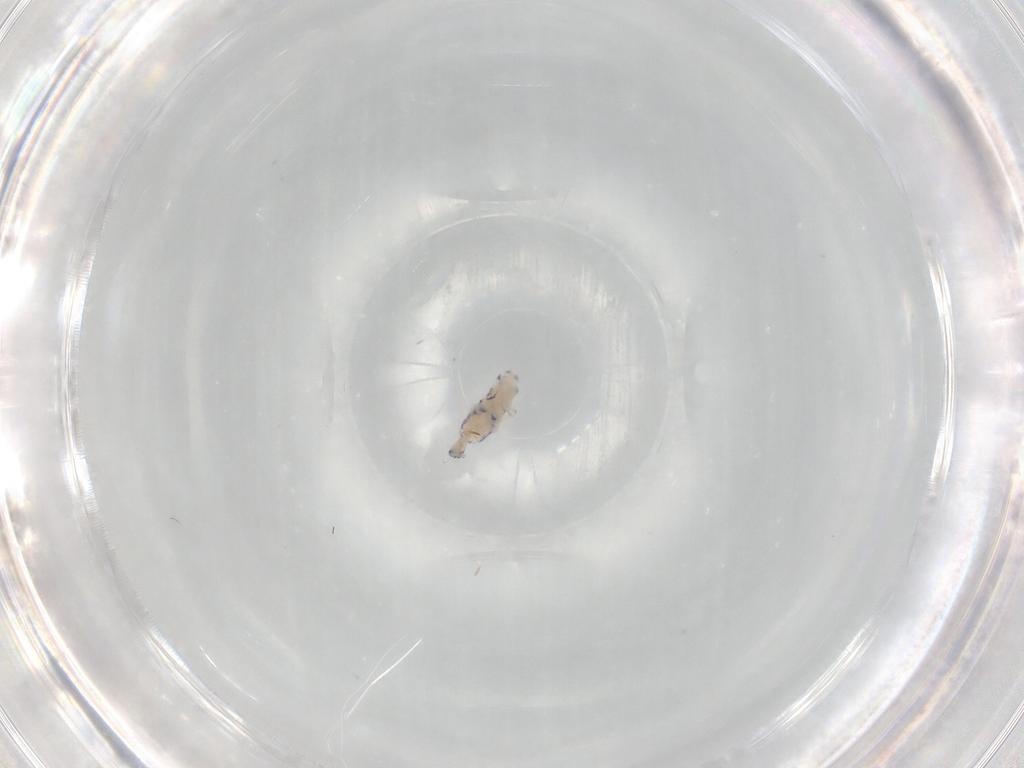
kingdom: Animalia
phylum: Arthropoda
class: Collembola
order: Entomobryomorpha
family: Entomobryidae
